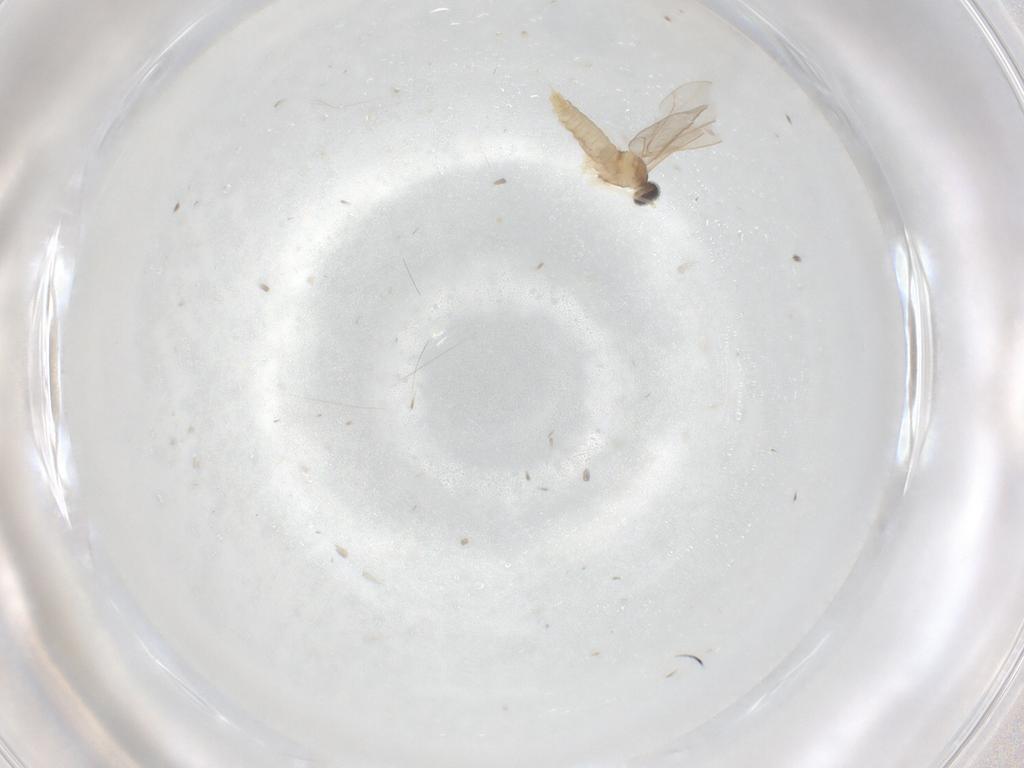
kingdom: Animalia
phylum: Arthropoda
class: Insecta
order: Diptera
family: Cecidomyiidae
